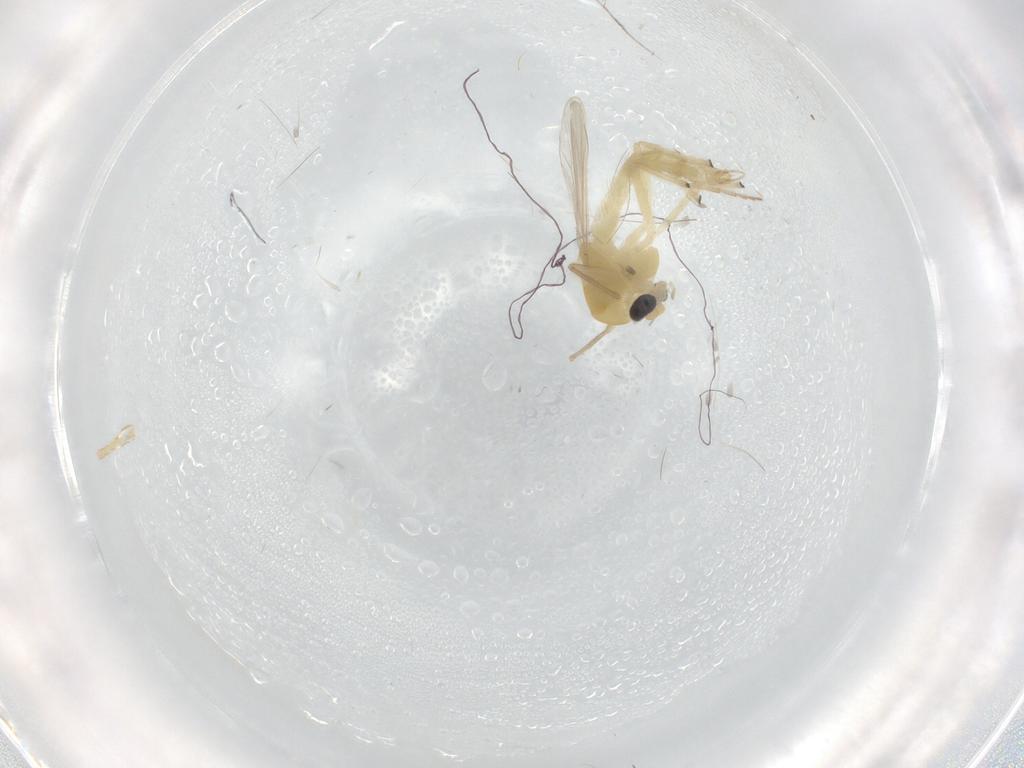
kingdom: Animalia
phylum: Arthropoda
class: Insecta
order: Diptera
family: Chironomidae
